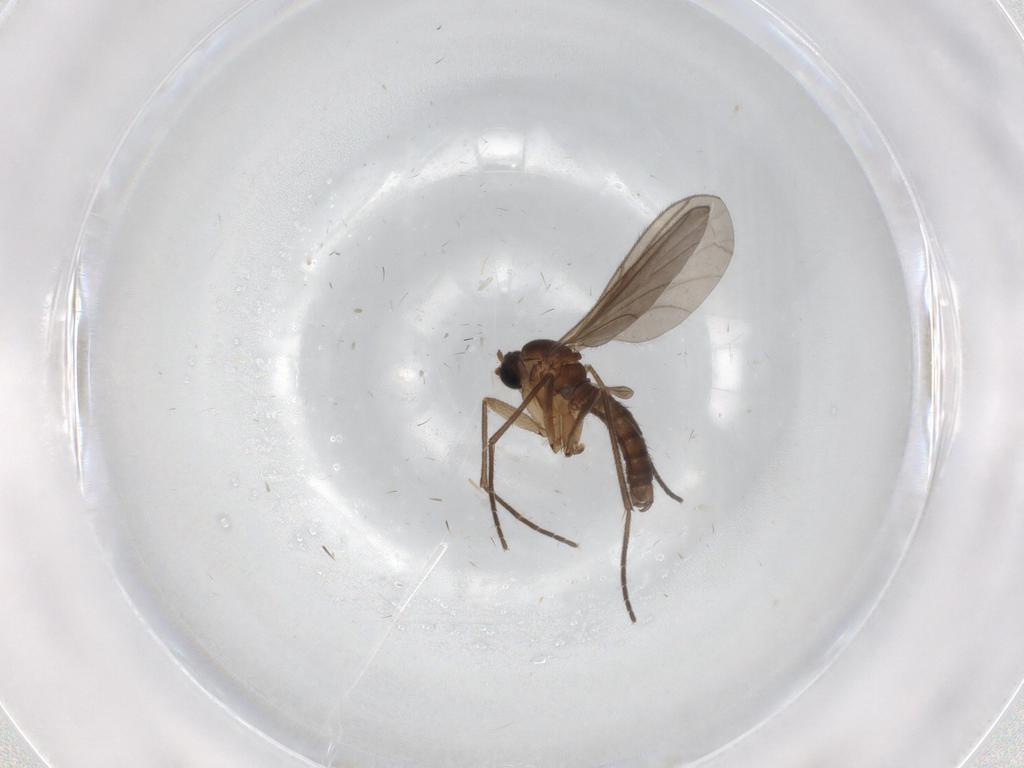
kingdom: Animalia
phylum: Arthropoda
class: Insecta
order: Diptera
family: Chironomidae
